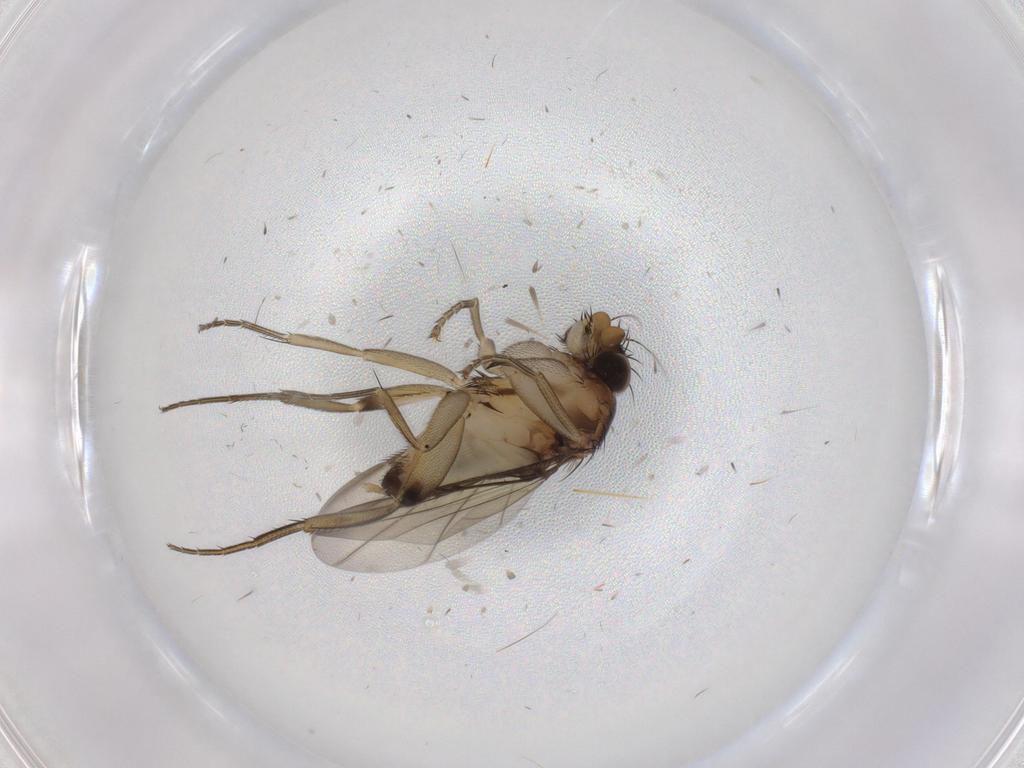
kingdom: Animalia
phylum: Arthropoda
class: Insecta
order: Diptera
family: Phoridae
